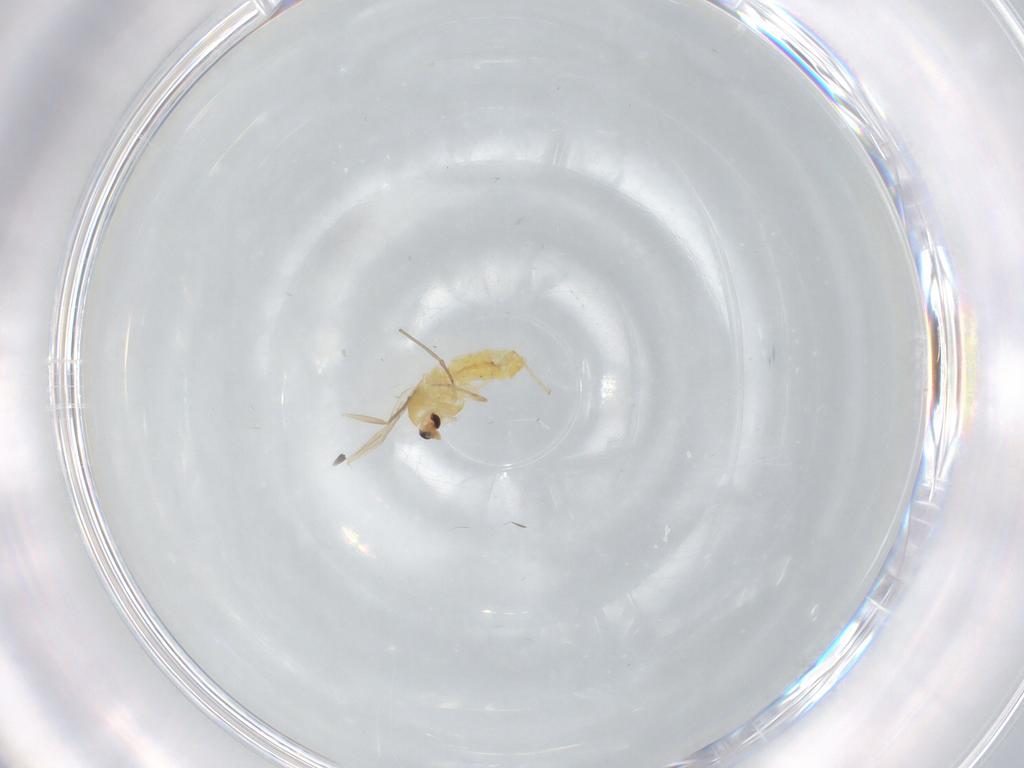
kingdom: Animalia
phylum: Arthropoda
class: Insecta
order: Diptera
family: Chironomidae
